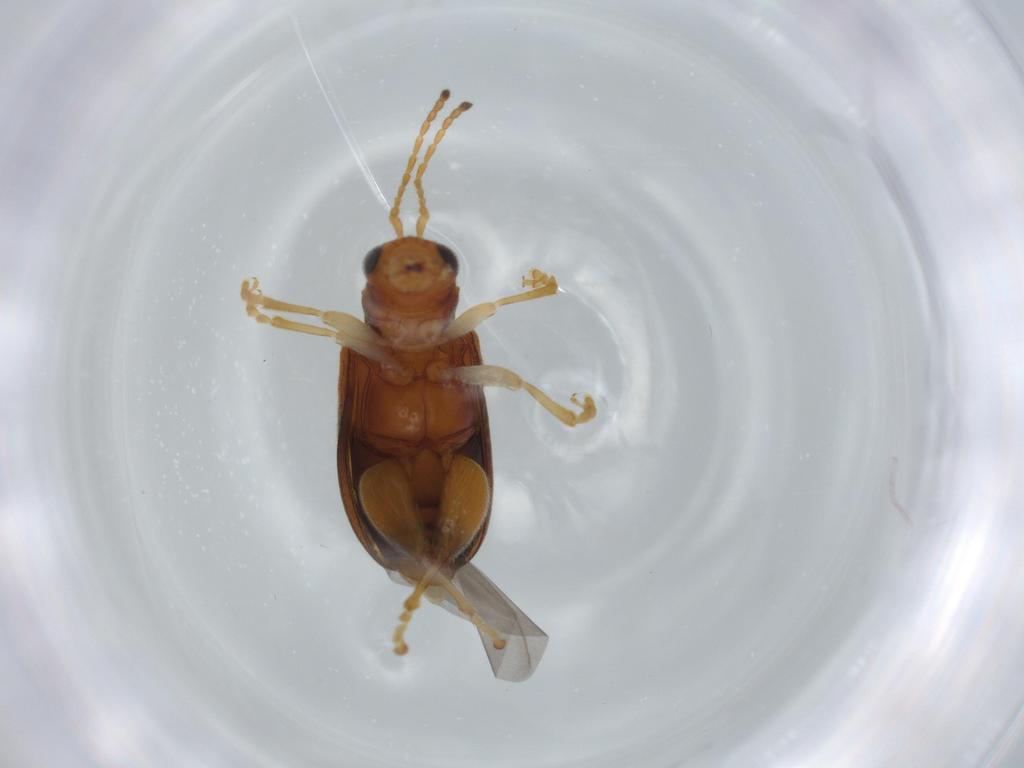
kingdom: Animalia
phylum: Arthropoda
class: Insecta
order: Coleoptera
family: Chrysomelidae
